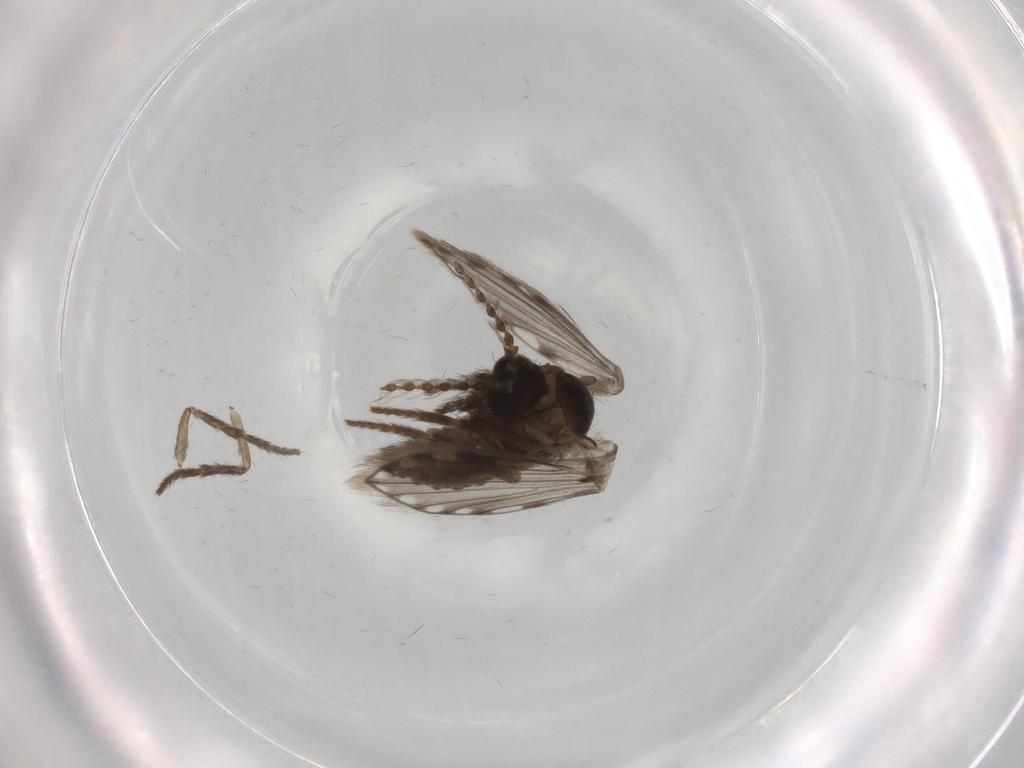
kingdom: Animalia
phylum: Arthropoda
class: Insecta
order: Diptera
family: Psychodidae
